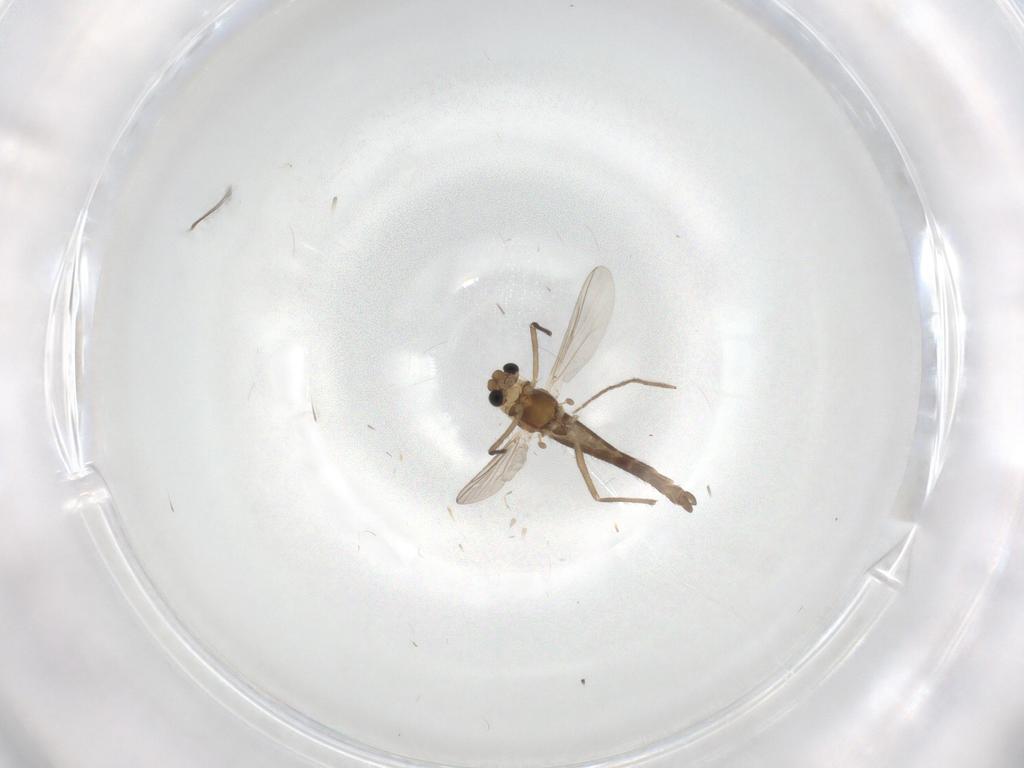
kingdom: Animalia
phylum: Arthropoda
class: Insecta
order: Diptera
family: Chironomidae
